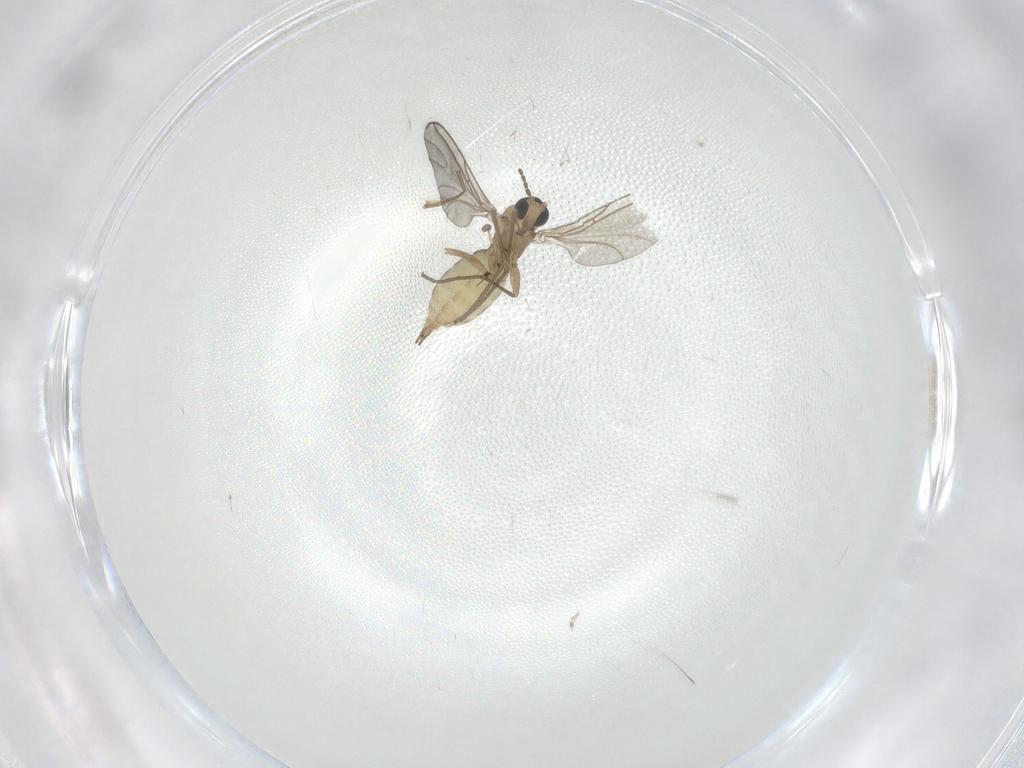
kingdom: Animalia
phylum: Arthropoda
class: Insecta
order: Diptera
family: Sciaridae
